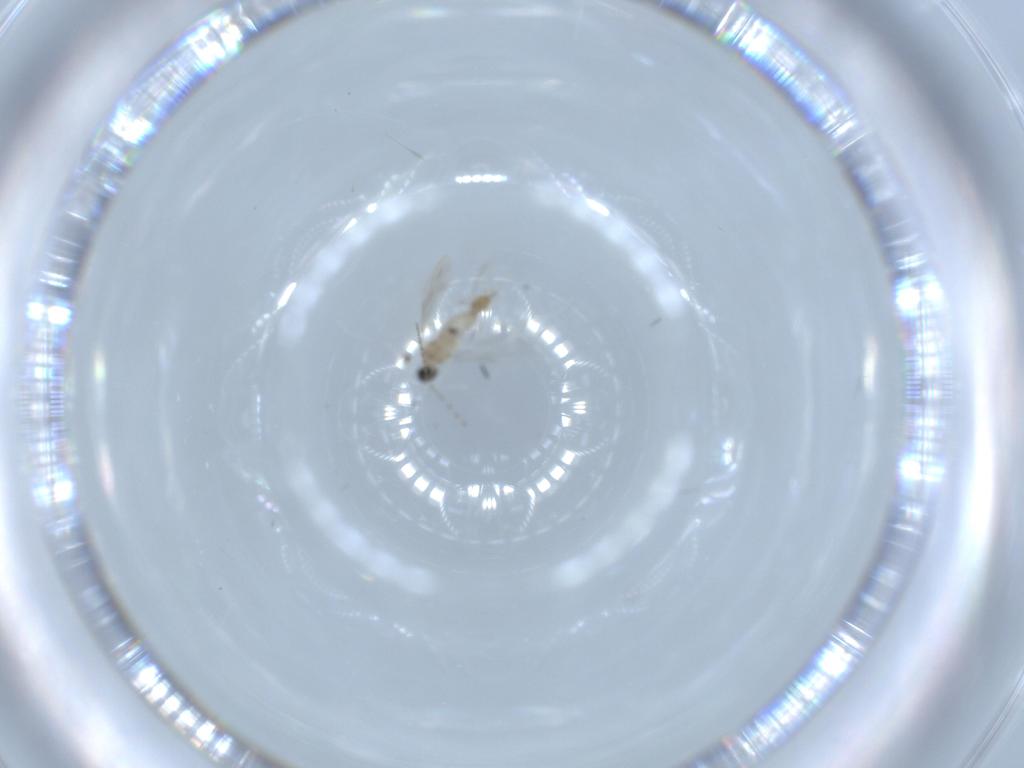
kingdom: Animalia
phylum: Arthropoda
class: Insecta
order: Diptera
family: Cecidomyiidae
